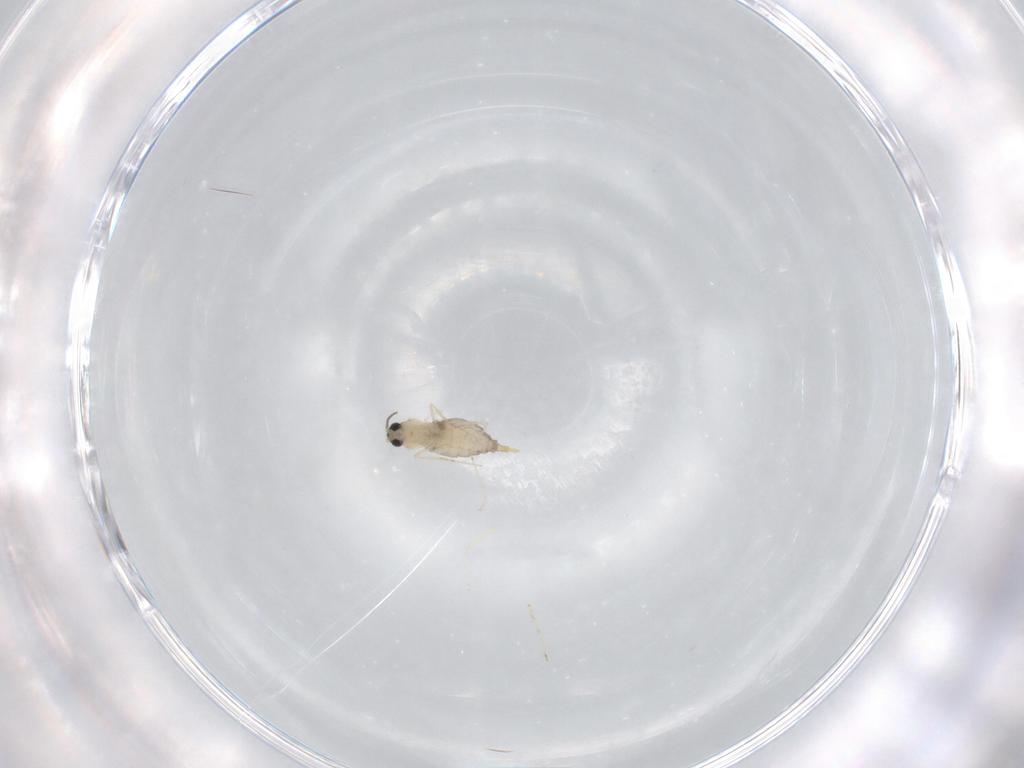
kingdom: Animalia
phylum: Arthropoda
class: Insecta
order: Diptera
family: Cecidomyiidae
